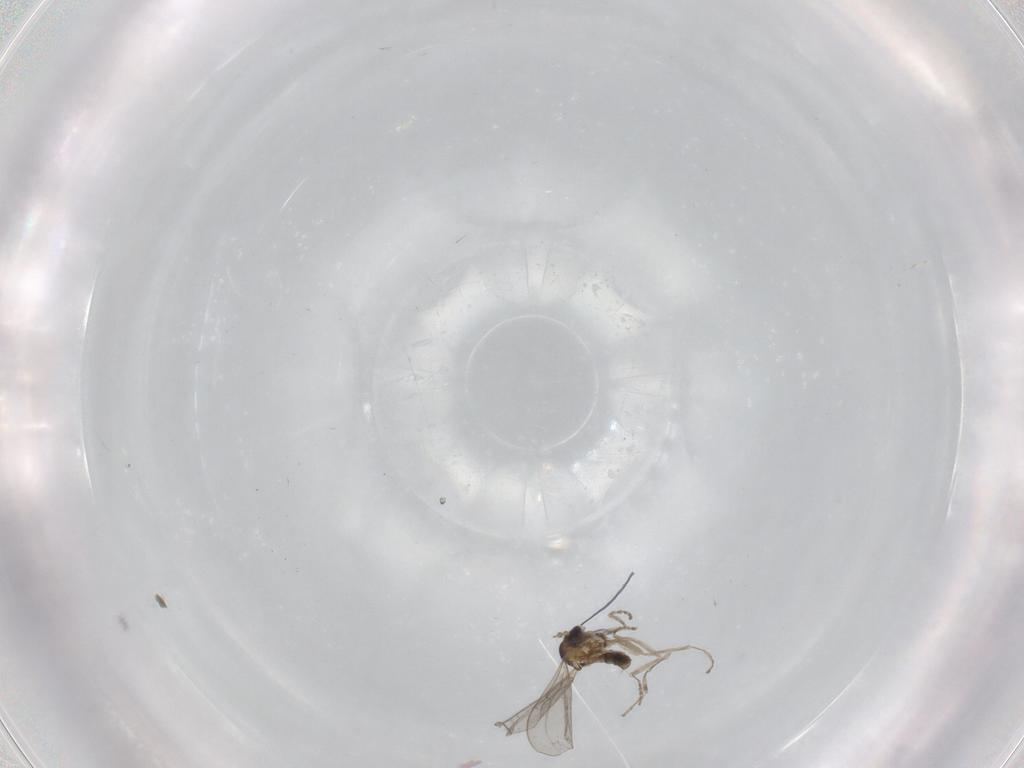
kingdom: Animalia
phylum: Arthropoda
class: Insecta
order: Diptera
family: Cecidomyiidae
